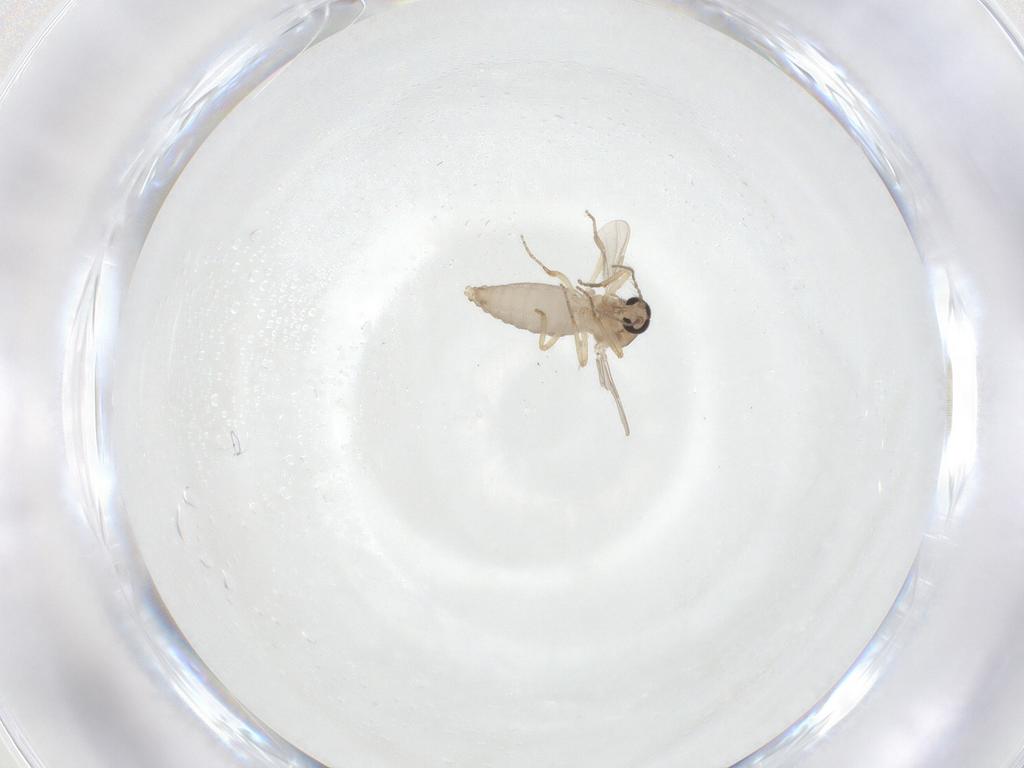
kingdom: Animalia
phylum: Arthropoda
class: Insecta
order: Diptera
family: Ceratopogonidae
